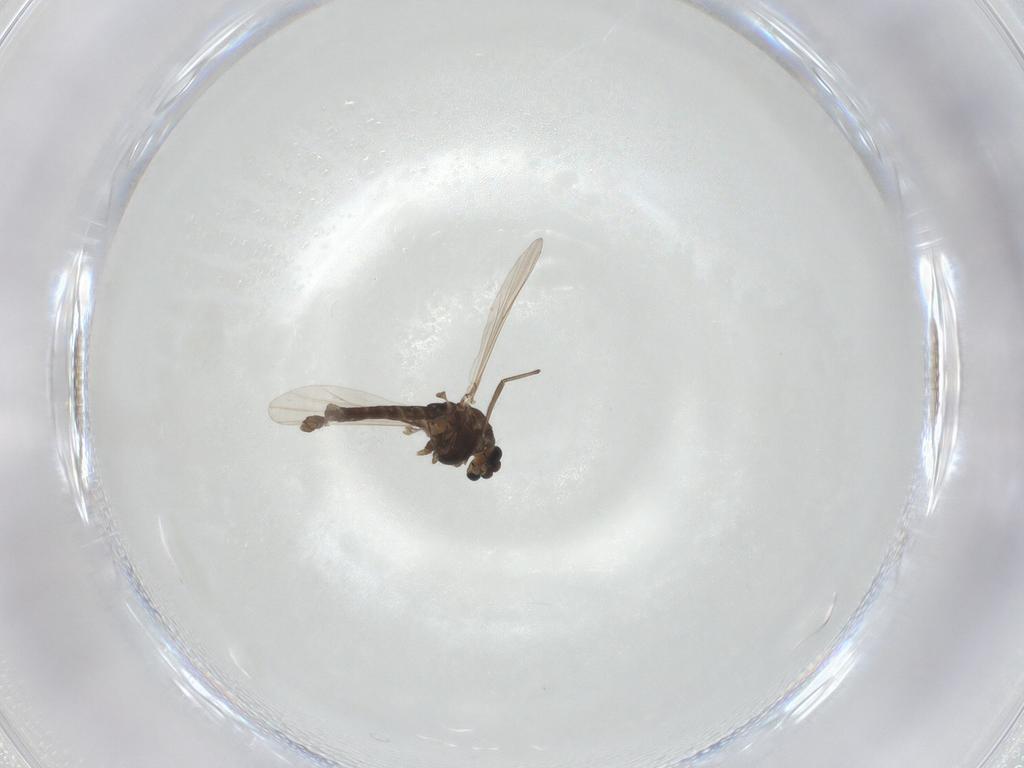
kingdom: Animalia
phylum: Arthropoda
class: Insecta
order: Diptera
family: Chironomidae
